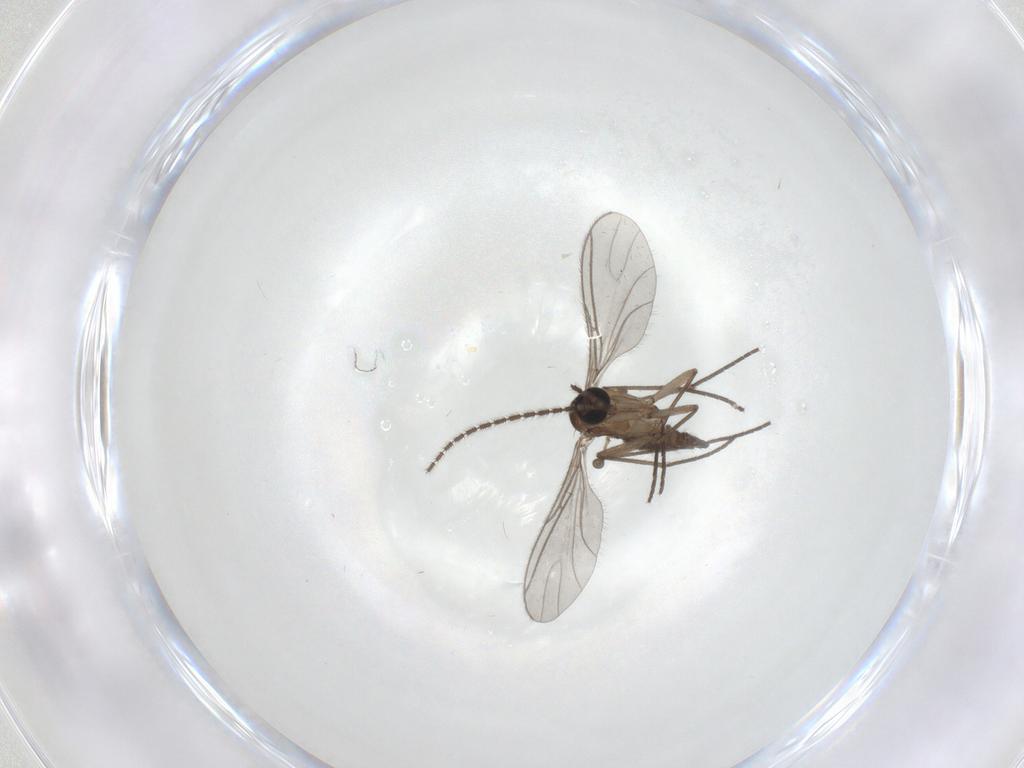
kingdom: Animalia
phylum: Arthropoda
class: Insecta
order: Diptera
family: Sciaridae
